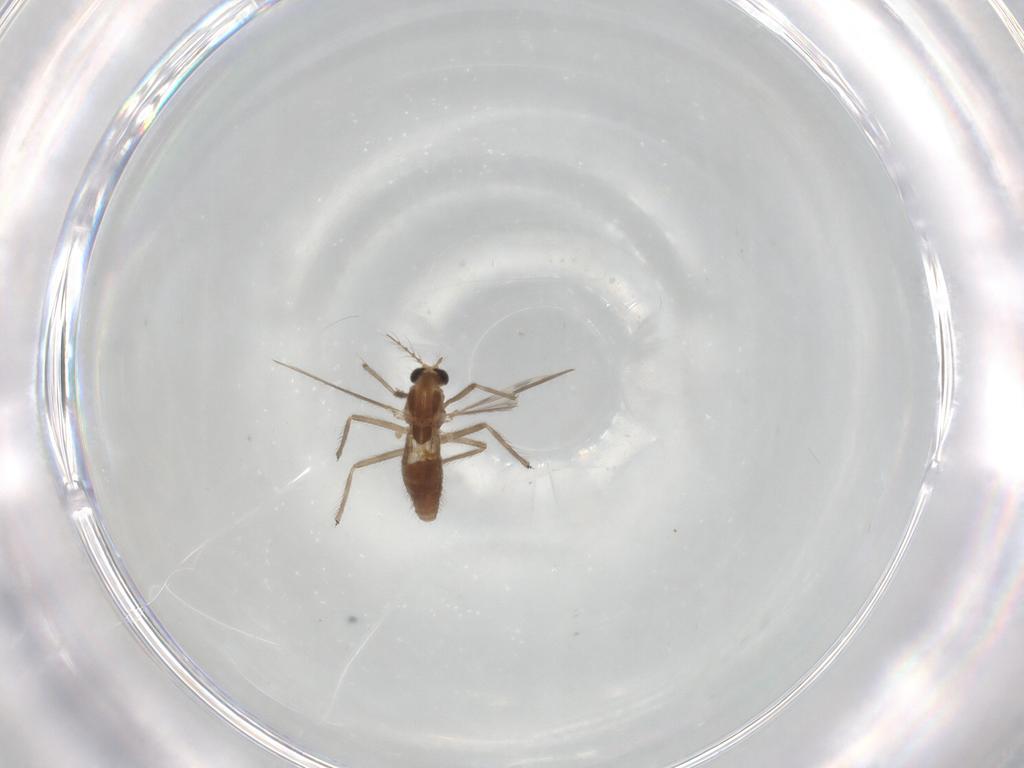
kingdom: Animalia
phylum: Arthropoda
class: Insecta
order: Diptera
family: Chironomidae
